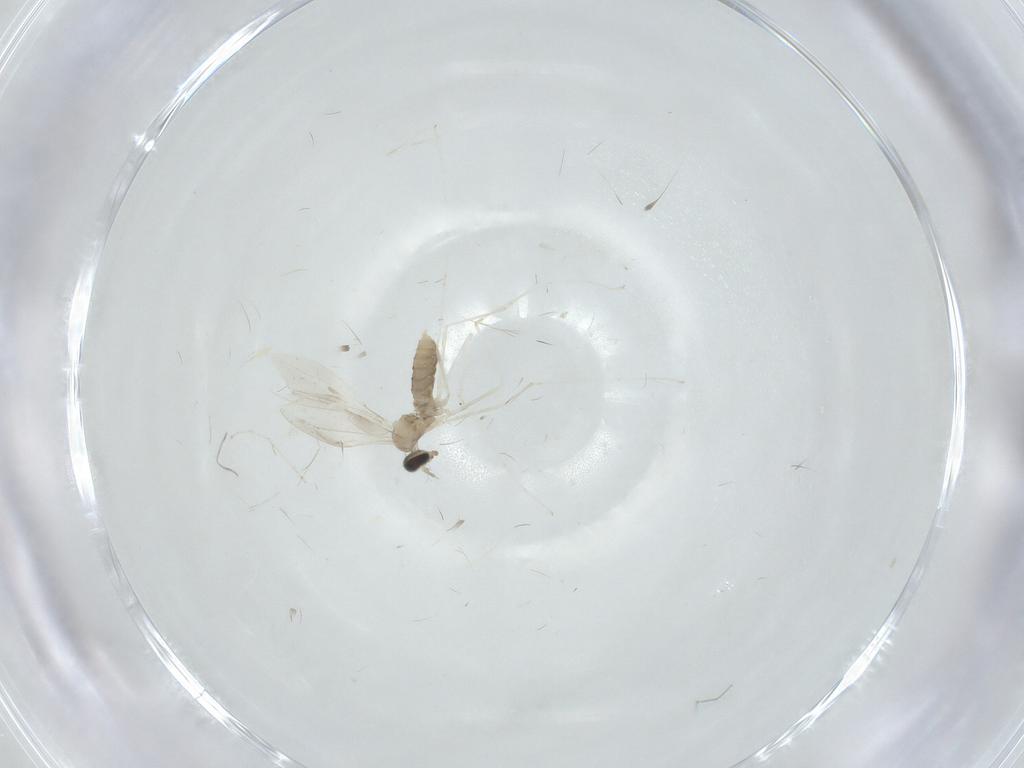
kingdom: Animalia
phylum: Arthropoda
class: Insecta
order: Diptera
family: Cecidomyiidae
